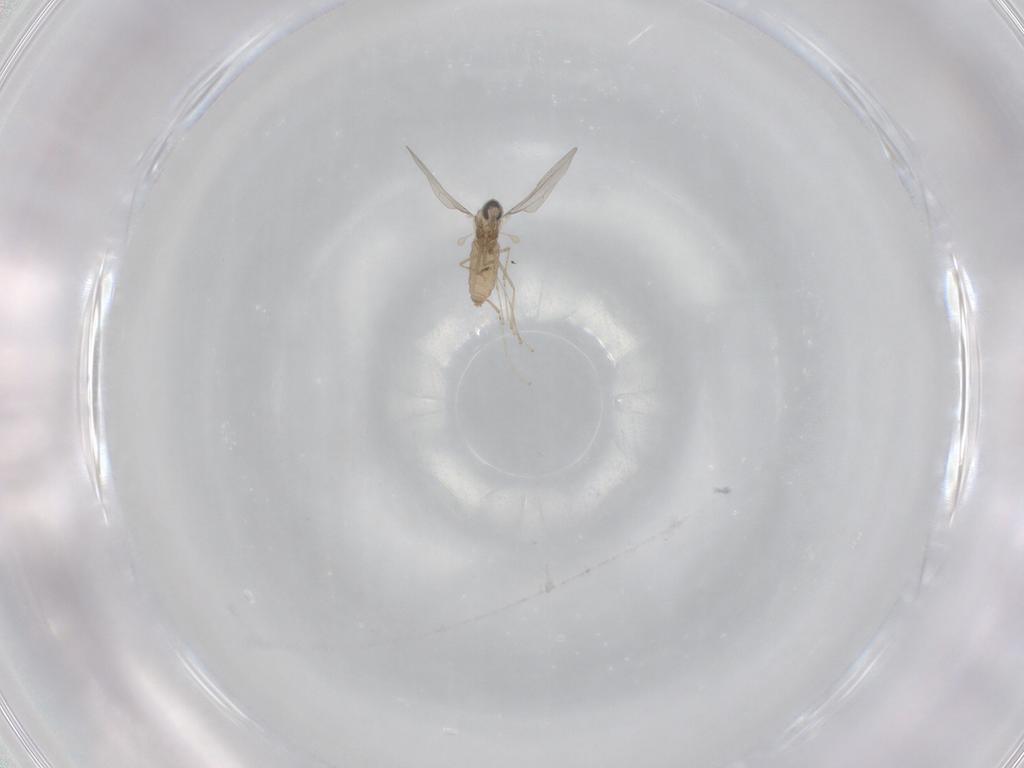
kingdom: Animalia
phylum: Arthropoda
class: Insecta
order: Diptera
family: Cecidomyiidae
